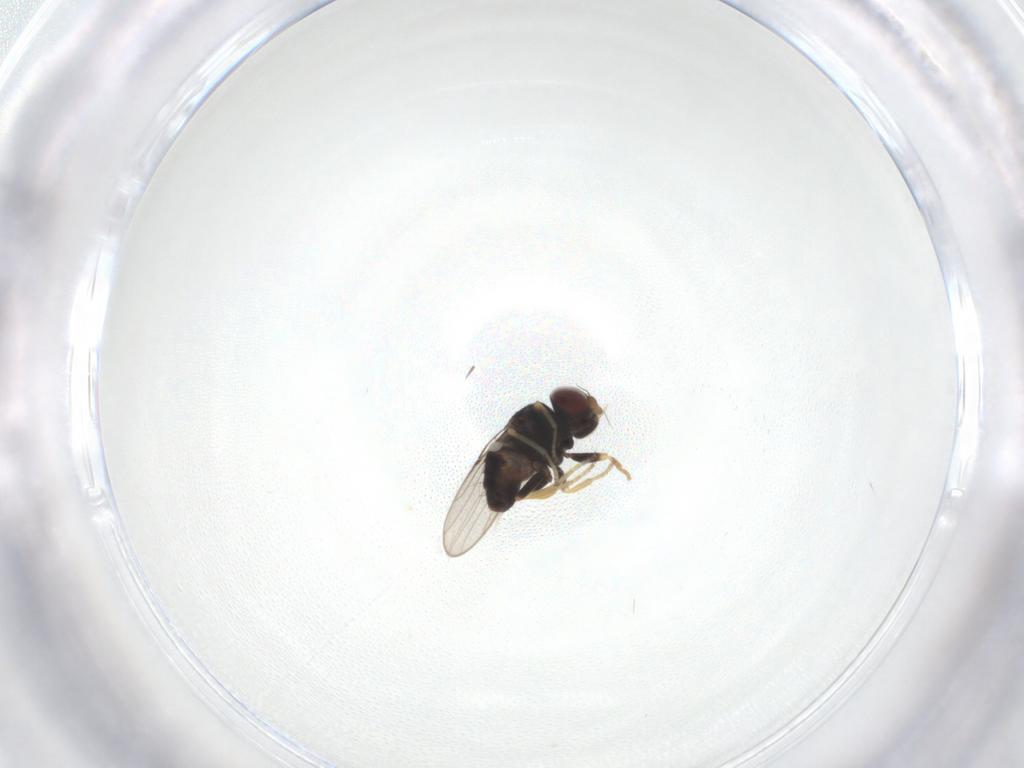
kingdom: Animalia
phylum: Arthropoda
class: Insecta
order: Diptera
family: Chloropidae
